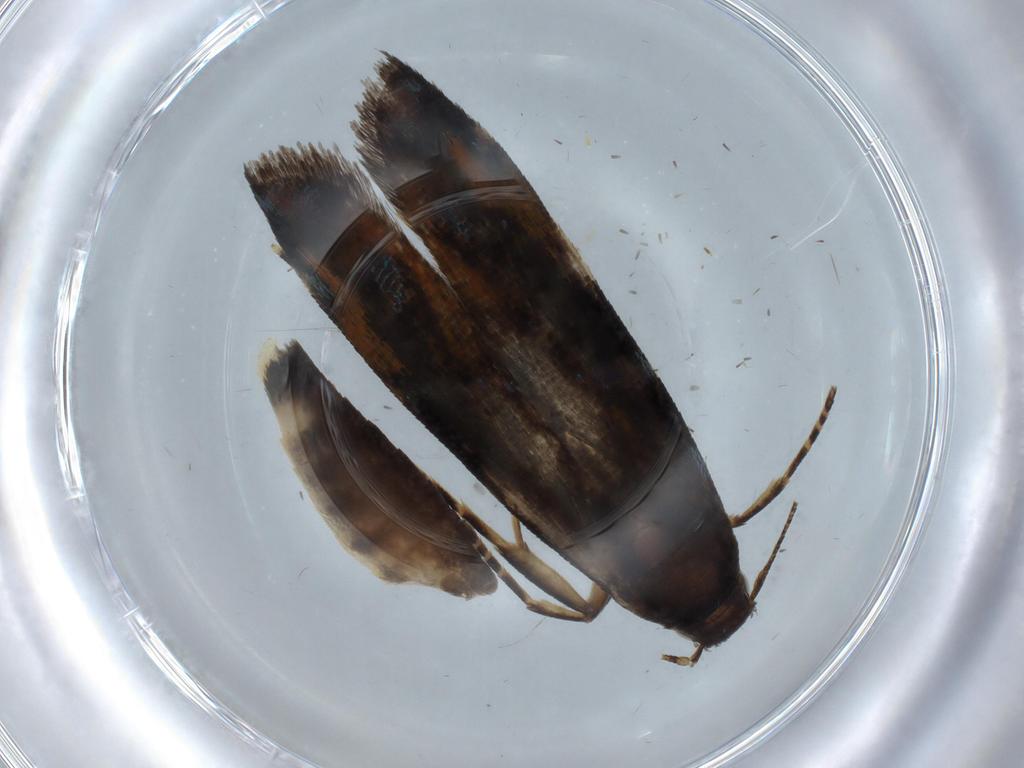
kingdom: Animalia
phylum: Arthropoda
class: Insecta
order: Lepidoptera
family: Gelechiidae
